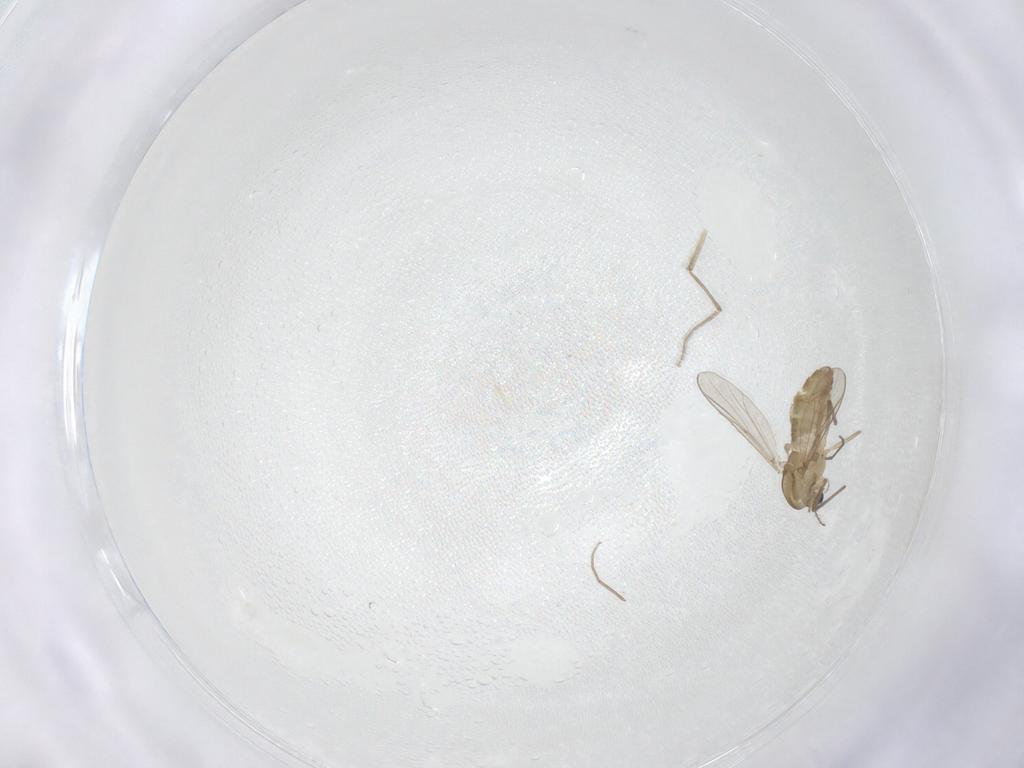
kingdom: Animalia
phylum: Arthropoda
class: Insecta
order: Diptera
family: Chironomidae
